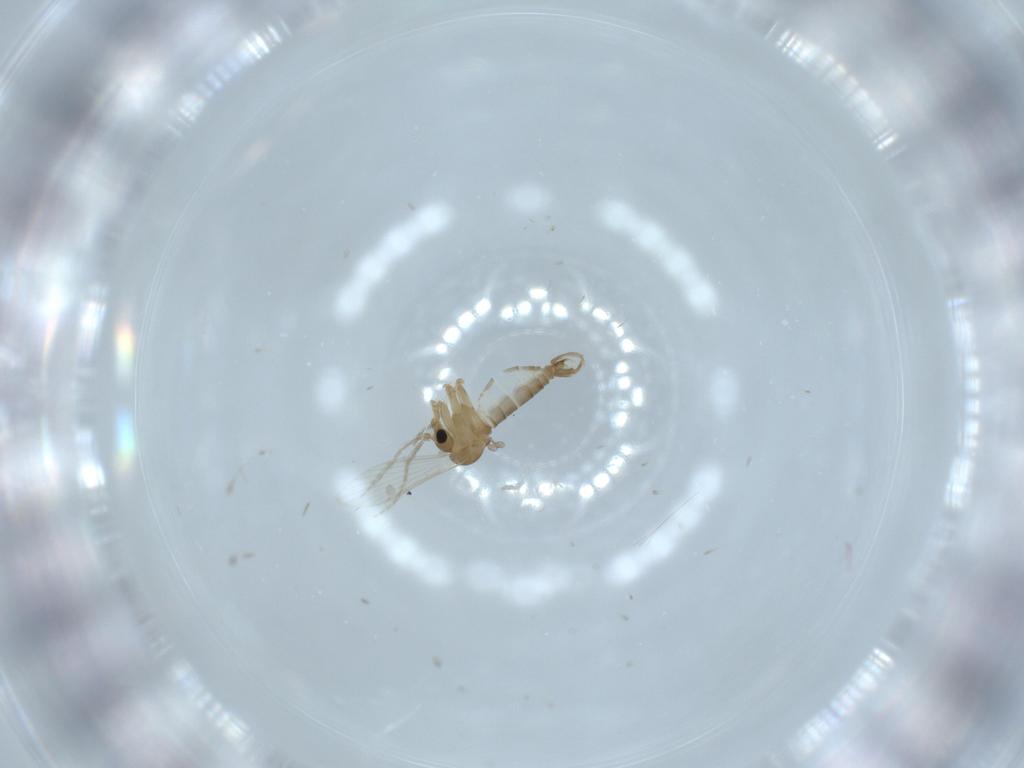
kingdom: Animalia
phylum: Arthropoda
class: Insecta
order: Diptera
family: Psychodidae
